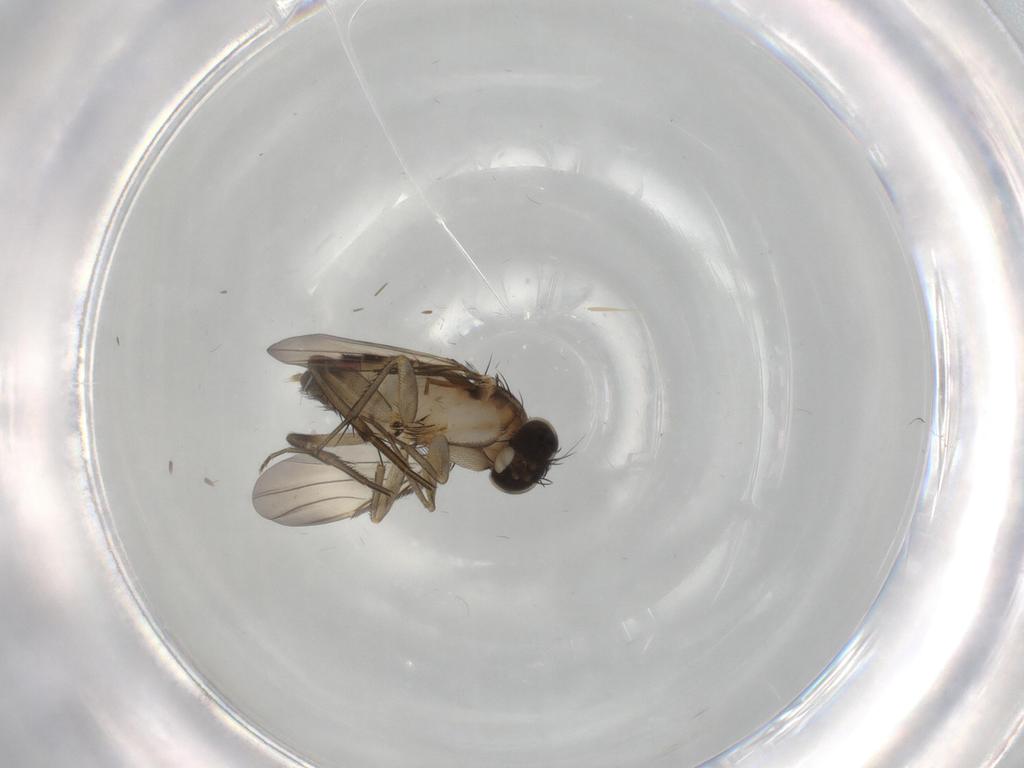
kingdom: Animalia
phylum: Arthropoda
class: Insecta
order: Diptera
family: Phoridae
